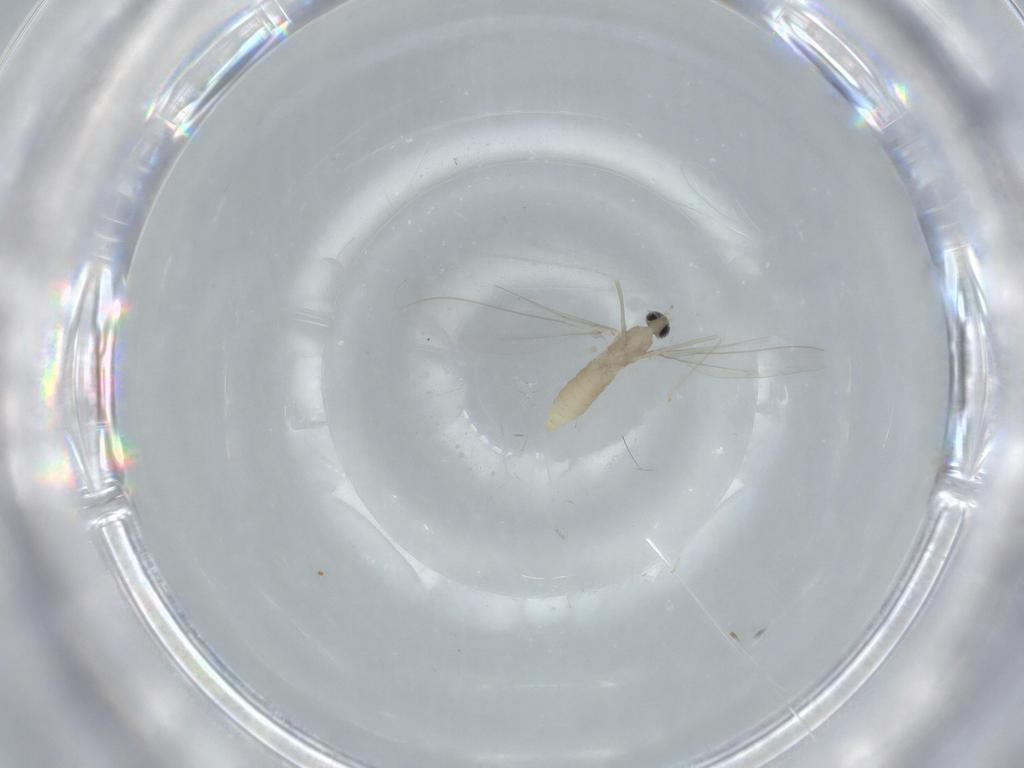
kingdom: Animalia
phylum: Arthropoda
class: Insecta
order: Diptera
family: Cecidomyiidae
